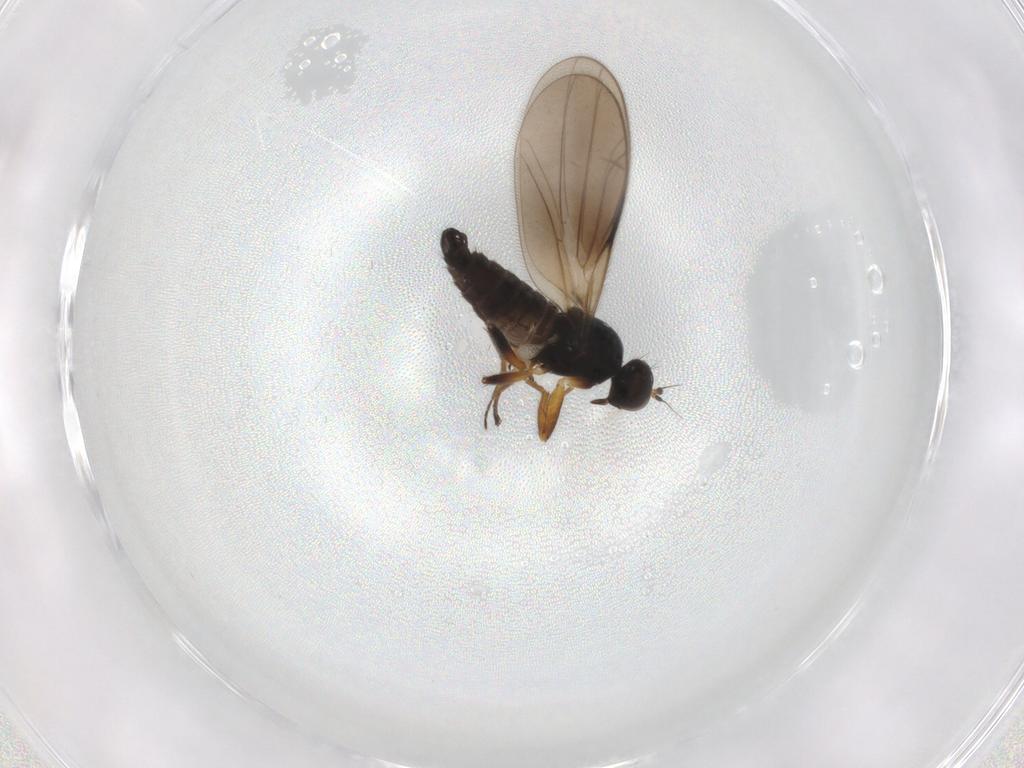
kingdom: Animalia
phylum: Arthropoda
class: Insecta
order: Diptera
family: Hybotidae
